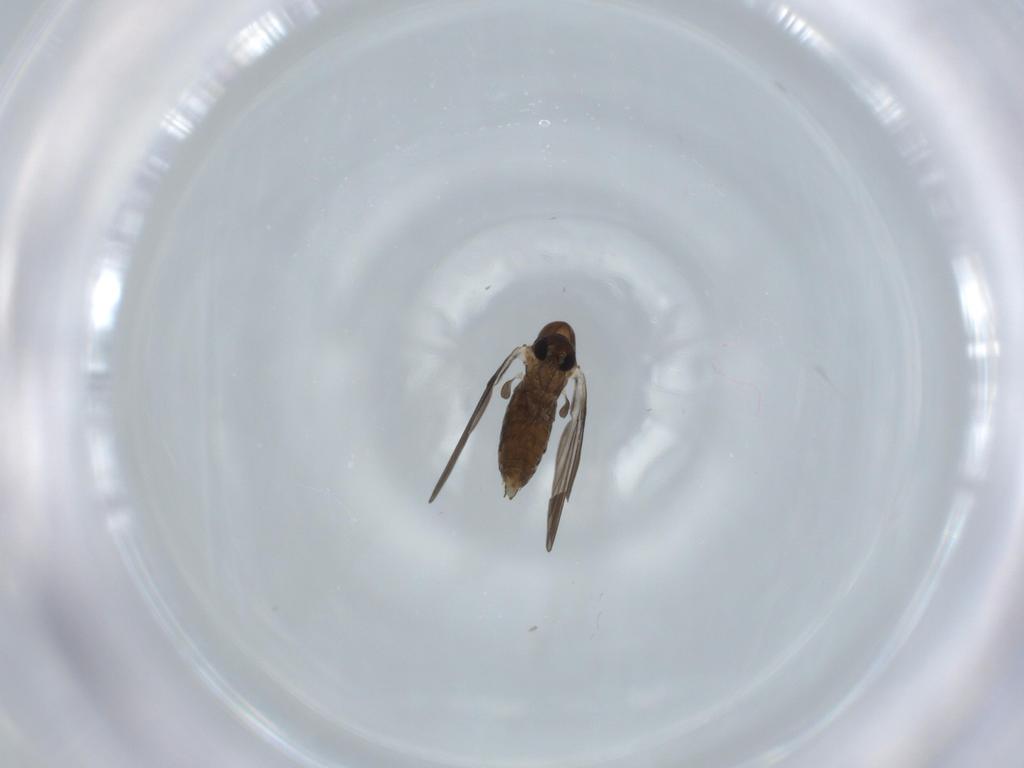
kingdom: Animalia
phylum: Arthropoda
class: Insecta
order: Diptera
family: Psychodidae
